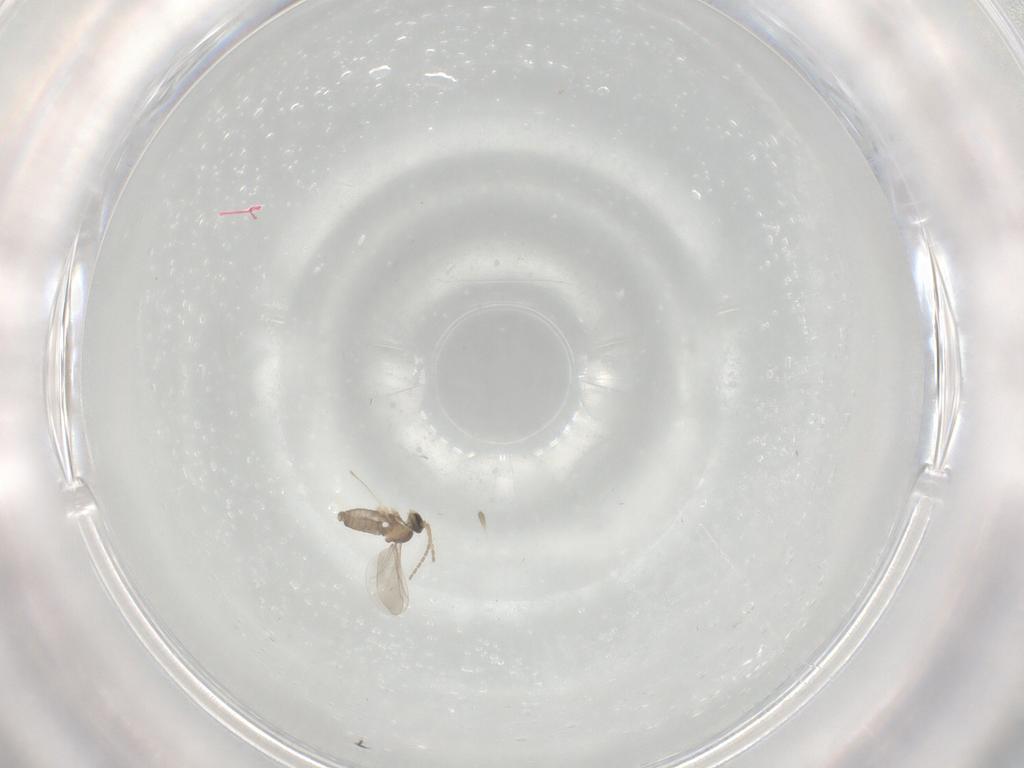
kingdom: Animalia
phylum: Arthropoda
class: Insecta
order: Diptera
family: Cecidomyiidae
